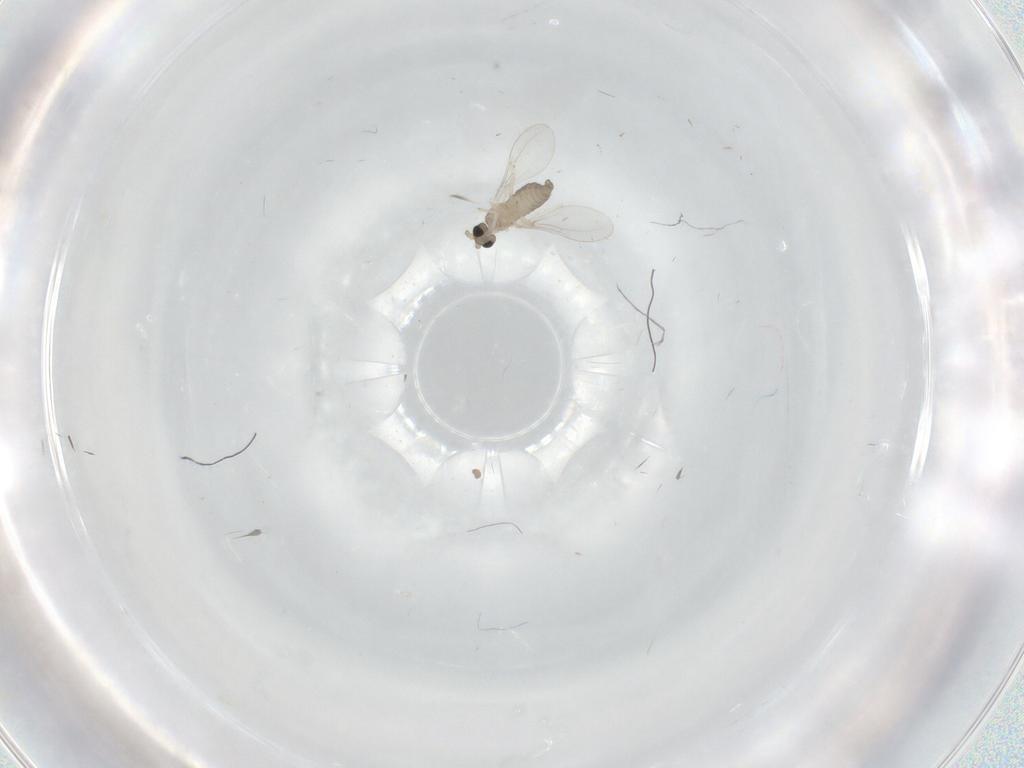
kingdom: Animalia
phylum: Arthropoda
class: Insecta
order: Diptera
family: Cecidomyiidae
